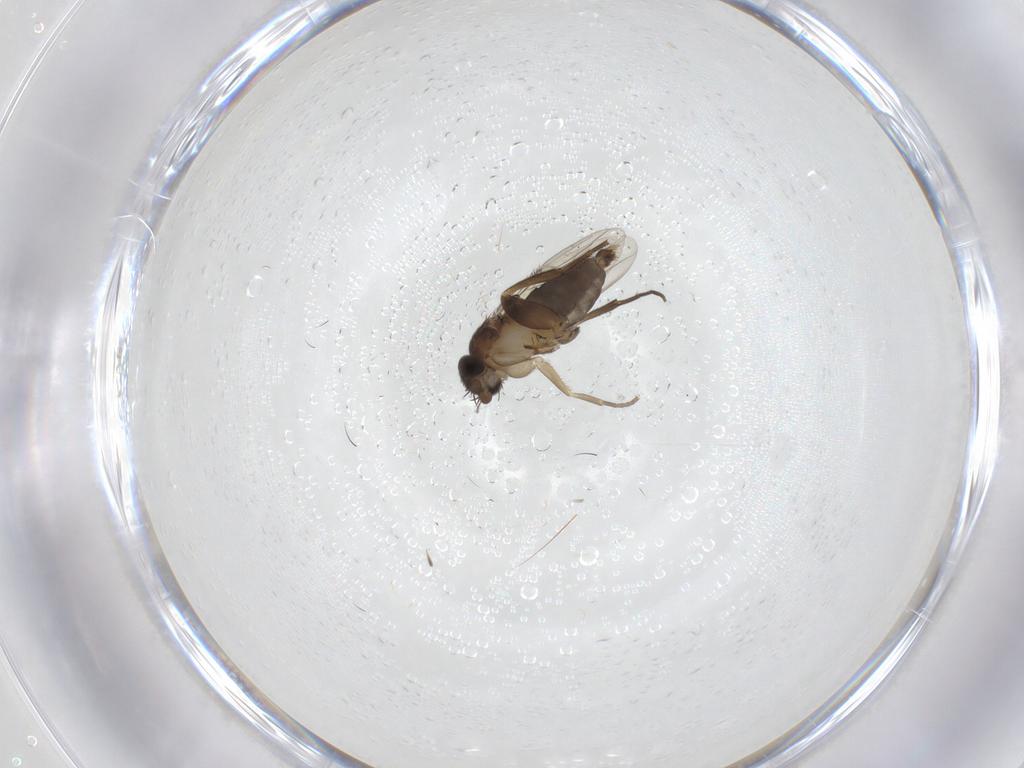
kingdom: Animalia
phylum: Arthropoda
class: Insecta
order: Diptera
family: Phoridae
